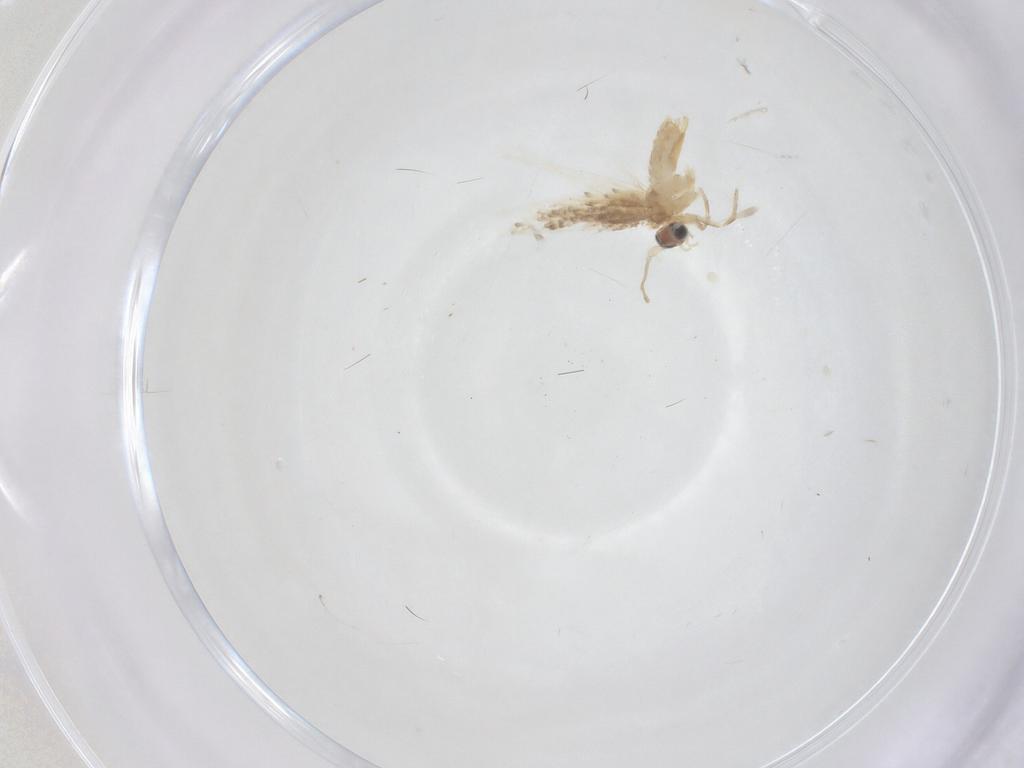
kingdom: Animalia
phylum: Arthropoda
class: Insecta
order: Lepidoptera
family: Nepticulidae
